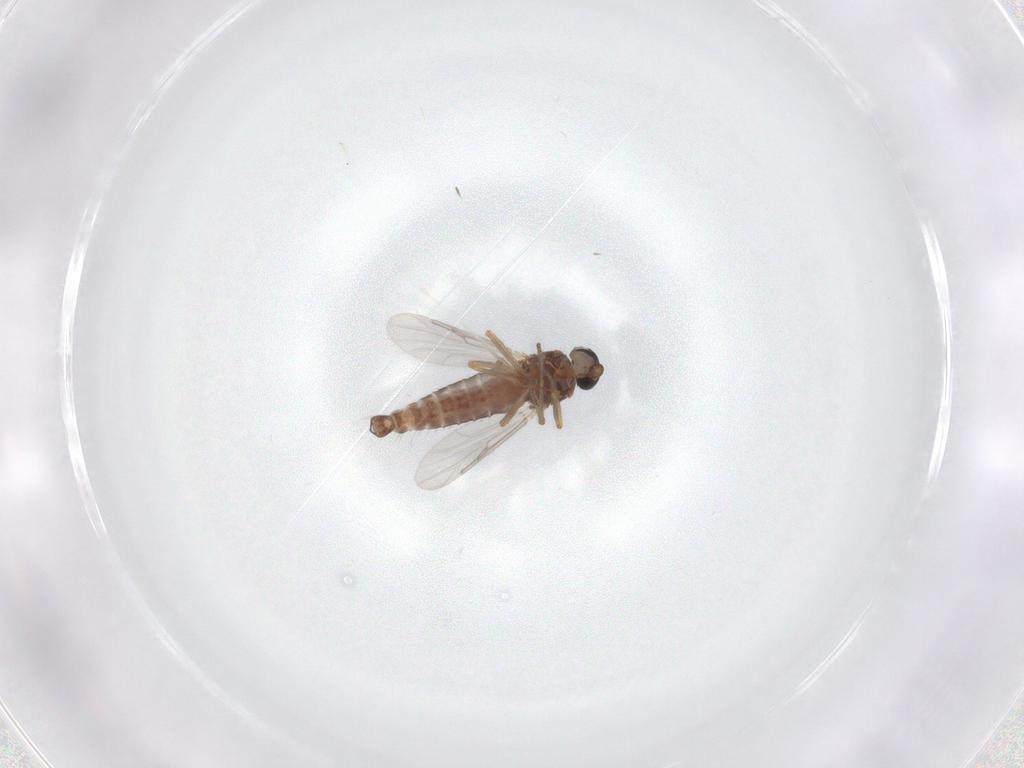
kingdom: Animalia
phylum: Arthropoda
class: Insecta
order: Diptera
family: Ceratopogonidae
